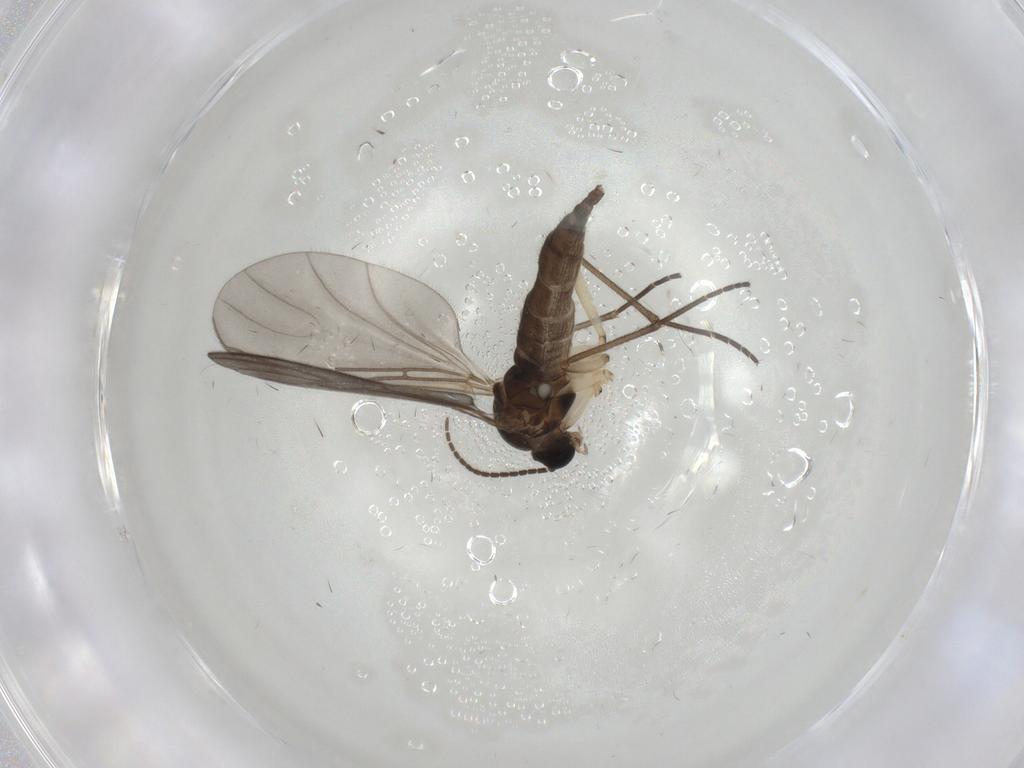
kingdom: Animalia
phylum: Arthropoda
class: Insecta
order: Diptera
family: Sciaridae
